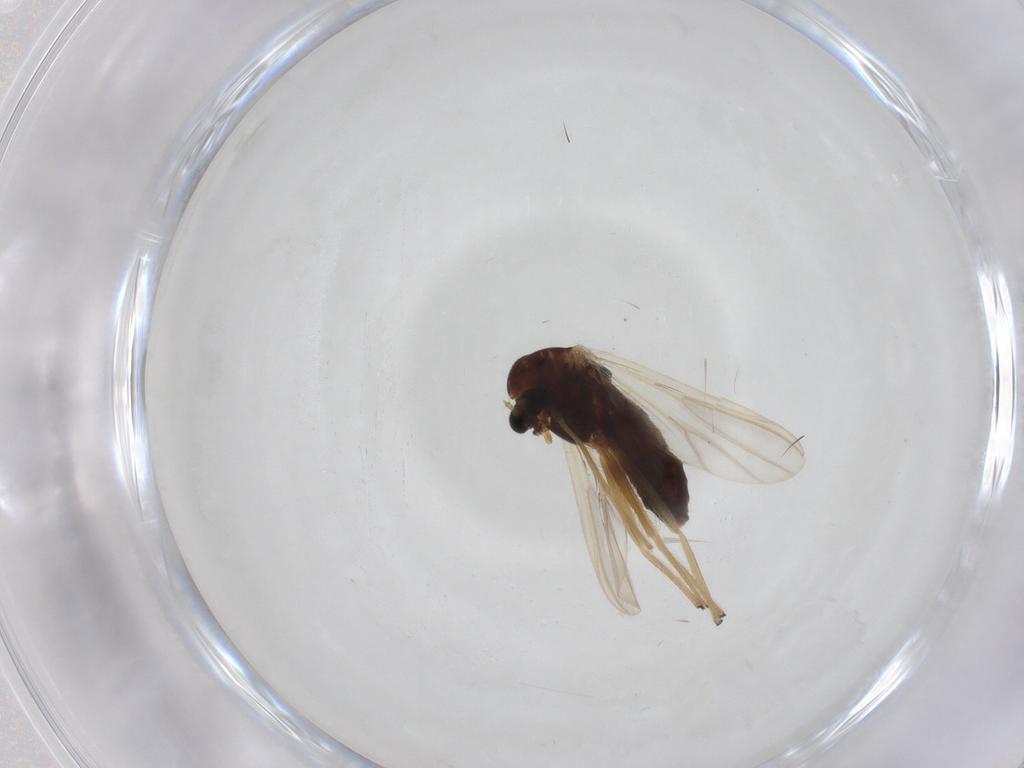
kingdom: Animalia
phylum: Arthropoda
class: Insecta
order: Diptera
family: Chironomidae
